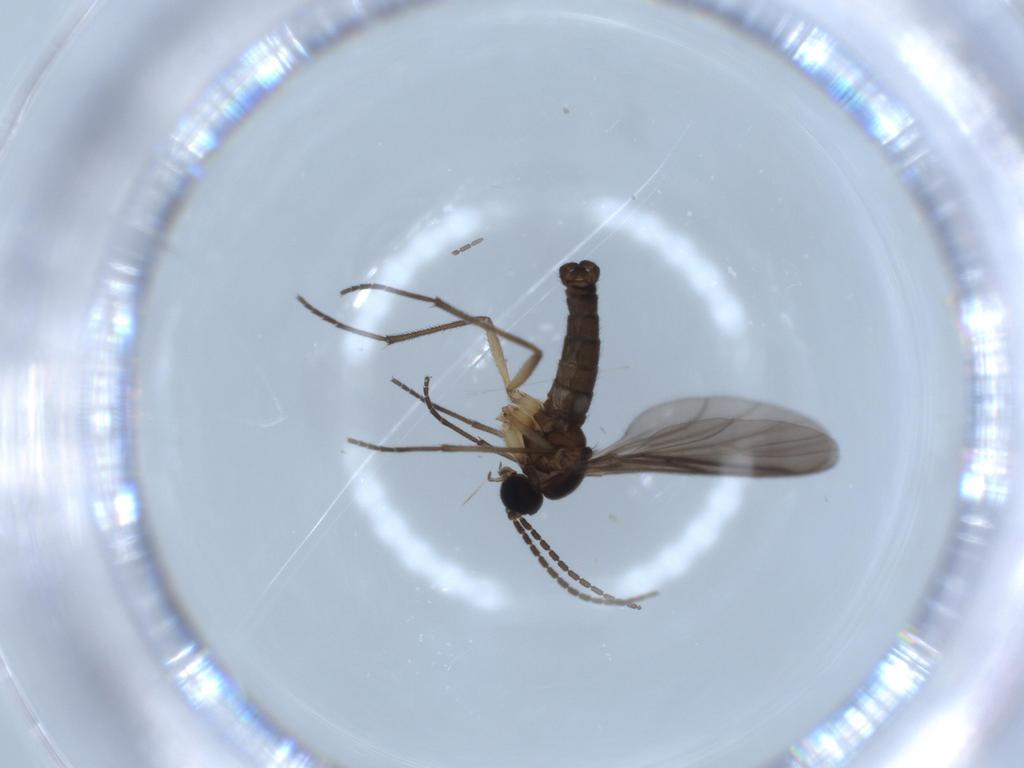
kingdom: Animalia
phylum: Arthropoda
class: Insecta
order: Diptera
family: Sciaridae
